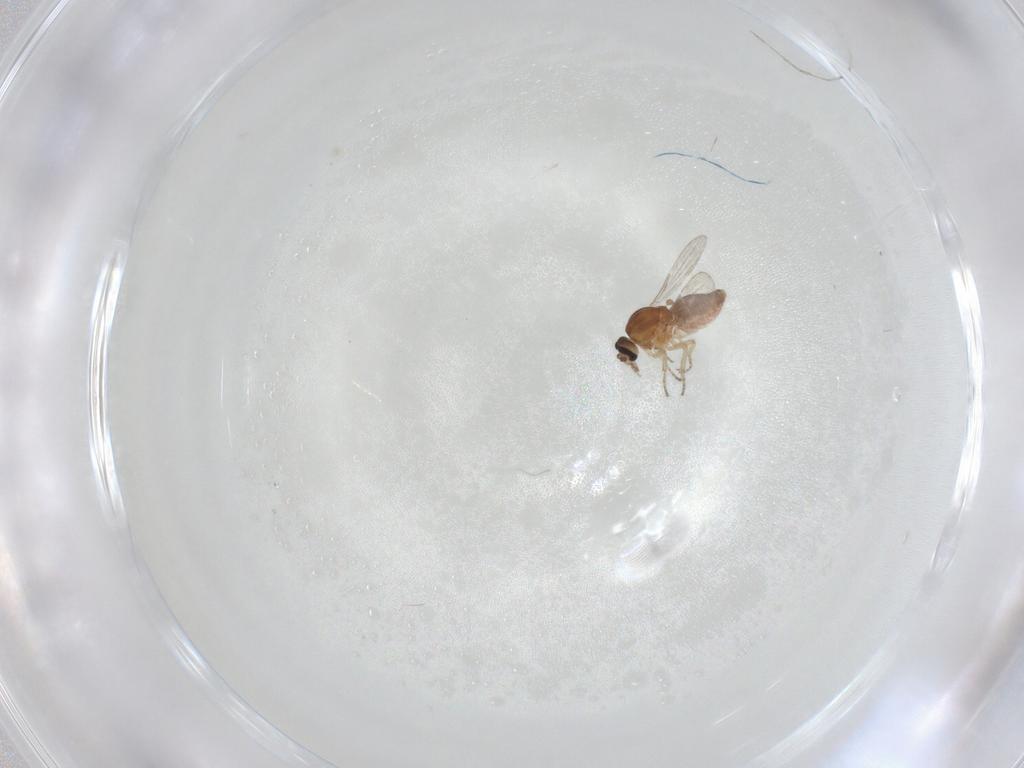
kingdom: Animalia
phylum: Arthropoda
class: Insecta
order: Diptera
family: Cecidomyiidae
